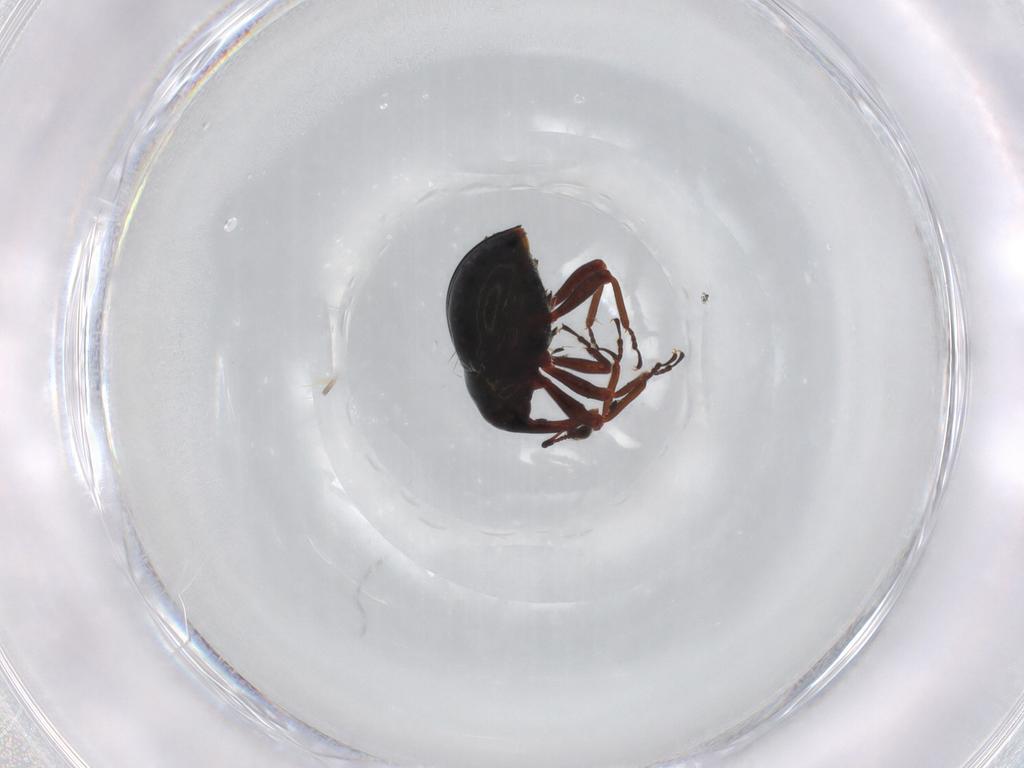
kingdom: Animalia
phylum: Arthropoda
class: Insecta
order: Coleoptera
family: Curculionidae
